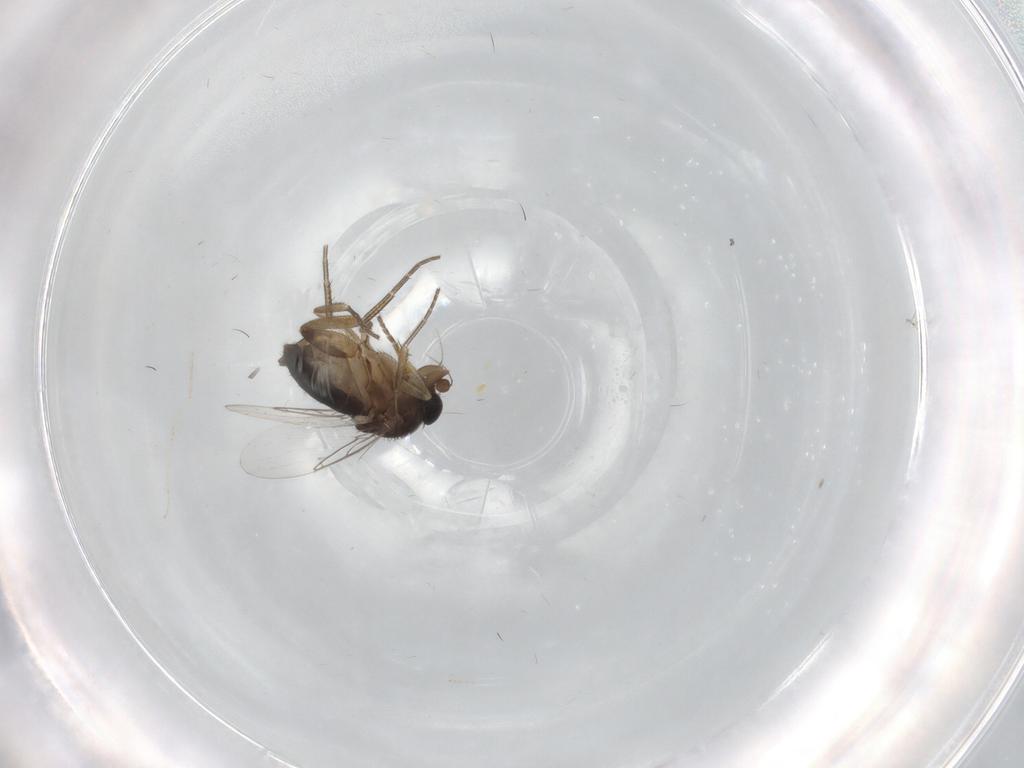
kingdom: Animalia
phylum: Arthropoda
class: Insecta
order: Diptera
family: Phoridae
